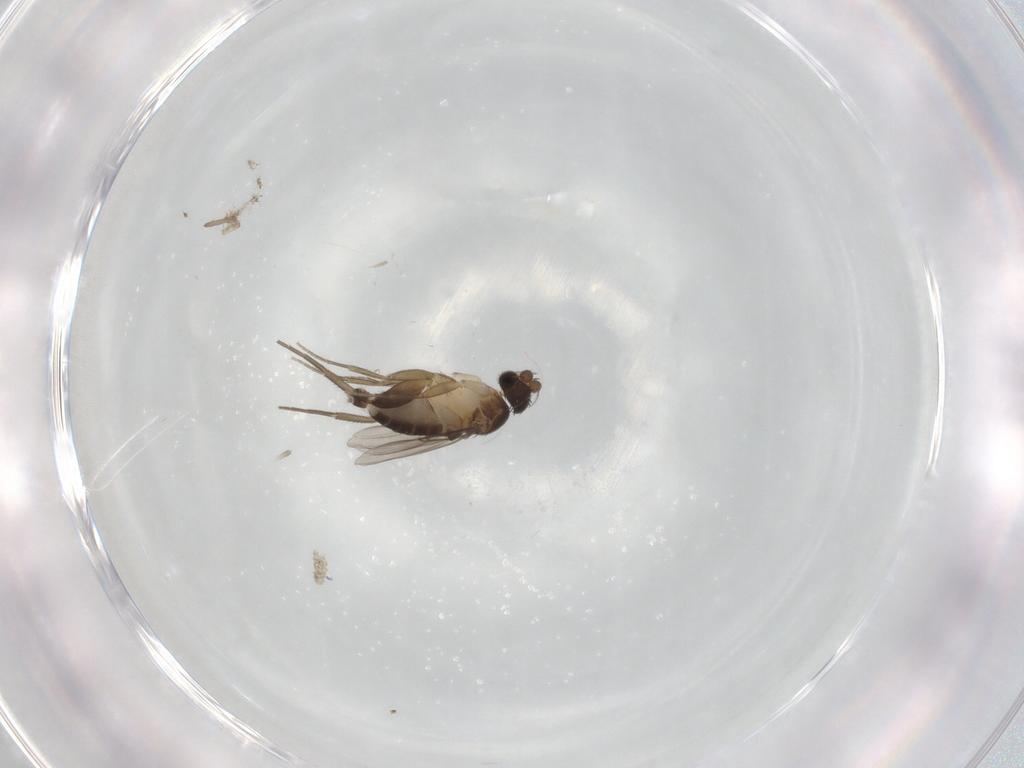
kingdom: Animalia
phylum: Arthropoda
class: Insecta
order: Diptera
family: Phoridae
